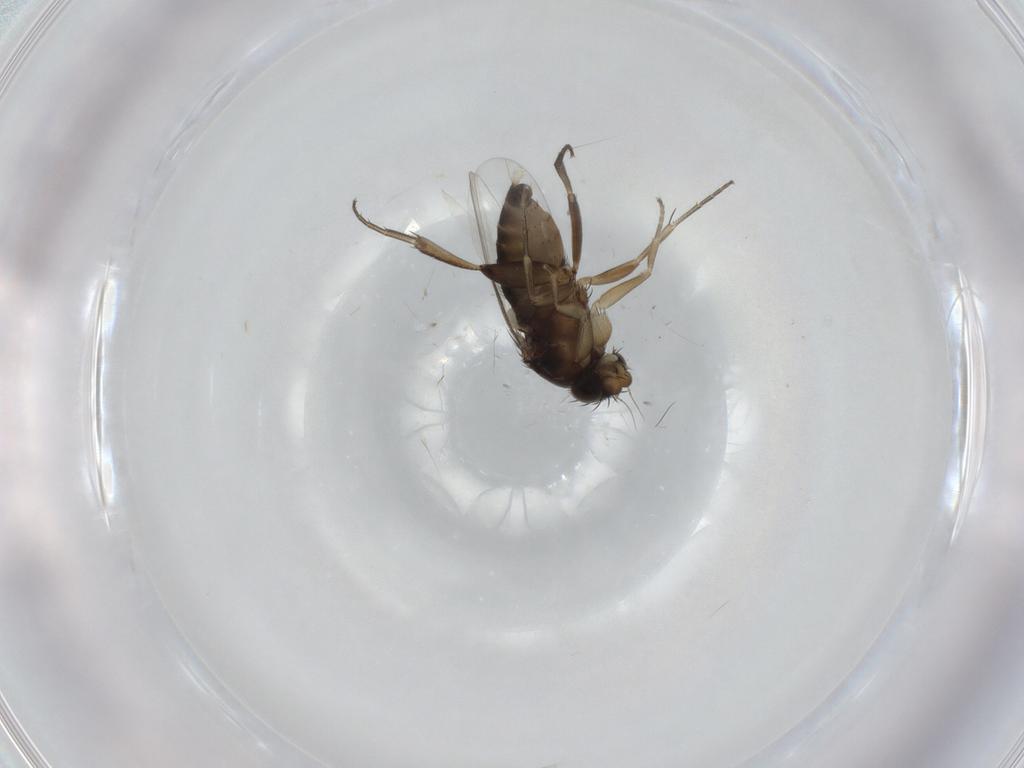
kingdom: Animalia
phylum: Arthropoda
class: Insecta
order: Diptera
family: Phoridae
